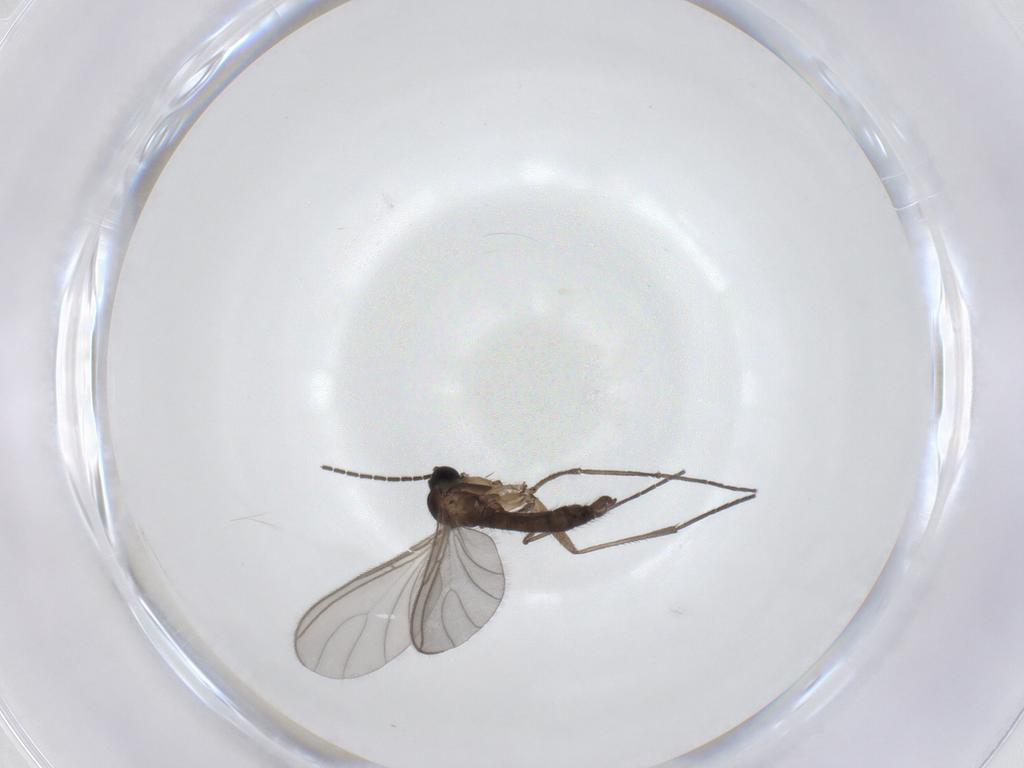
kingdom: Animalia
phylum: Arthropoda
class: Insecta
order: Diptera
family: Sciaridae
